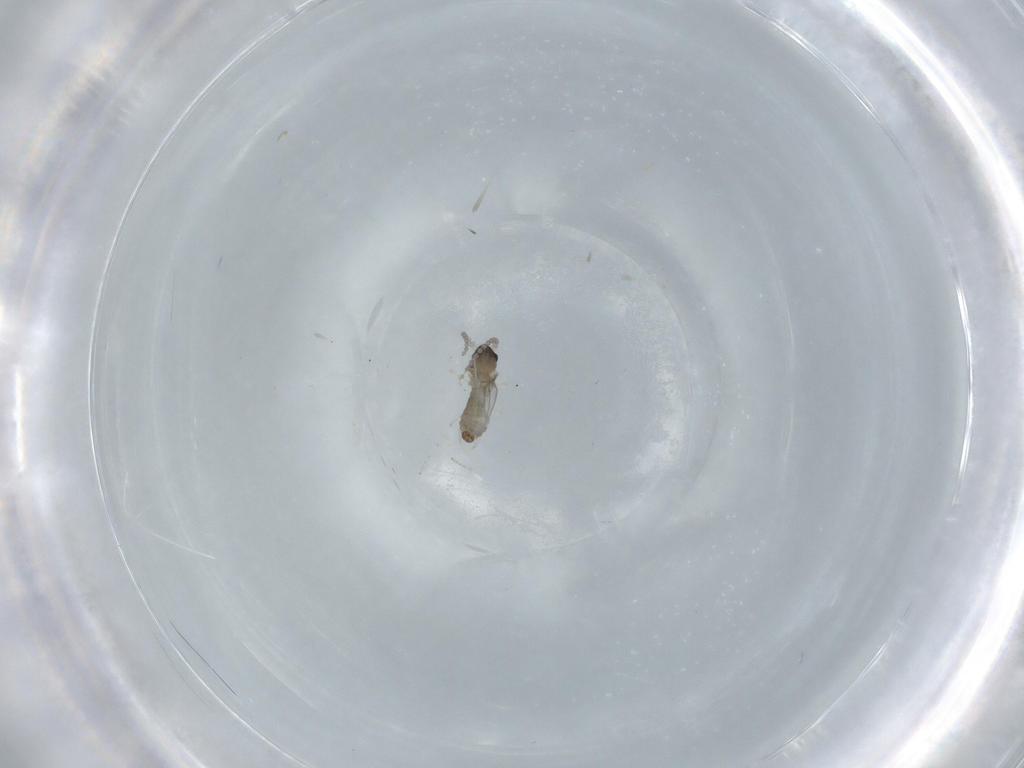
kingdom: Animalia
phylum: Arthropoda
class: Insecta
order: Diptera
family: Cecidomyiidae
